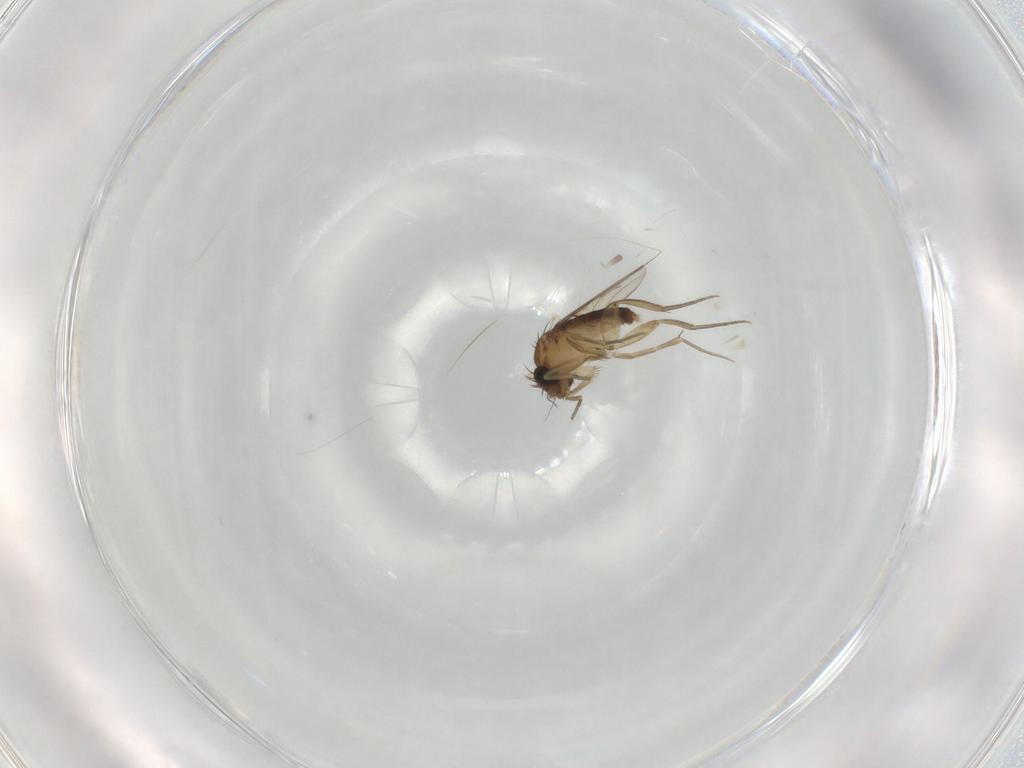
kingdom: Animalia
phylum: Arthropoda
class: Insecta
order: Diptera
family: Phoridae
